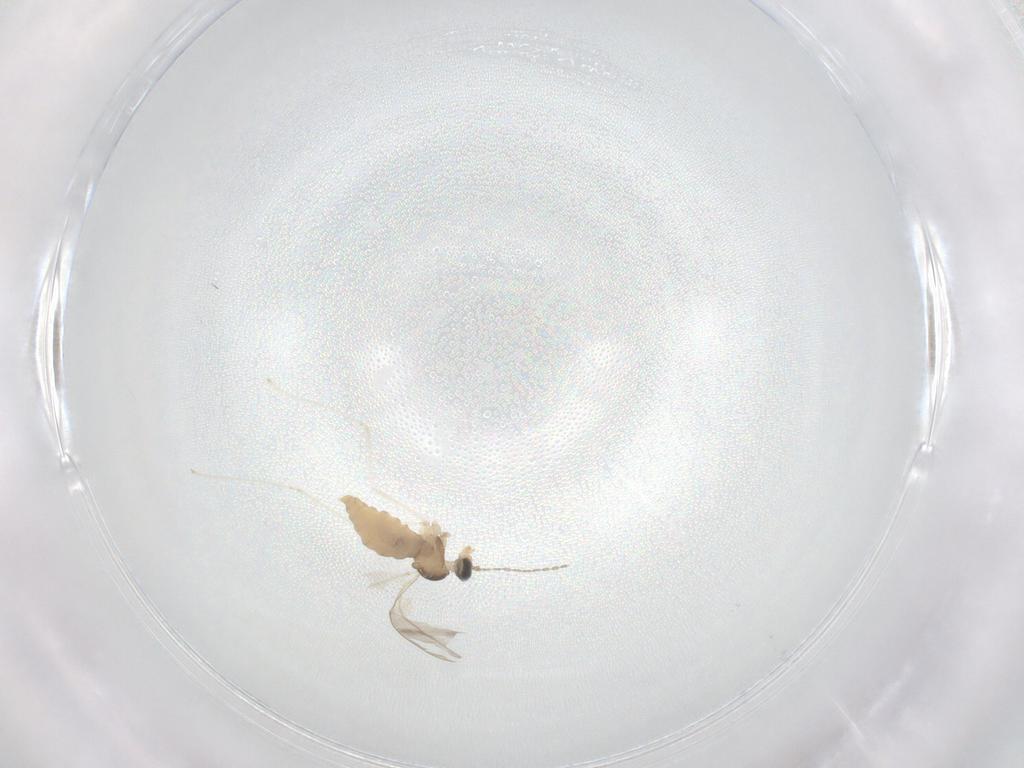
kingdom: Animalia
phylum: Arthropoda
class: Insecta
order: Diptera
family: Cecidomyiidae
